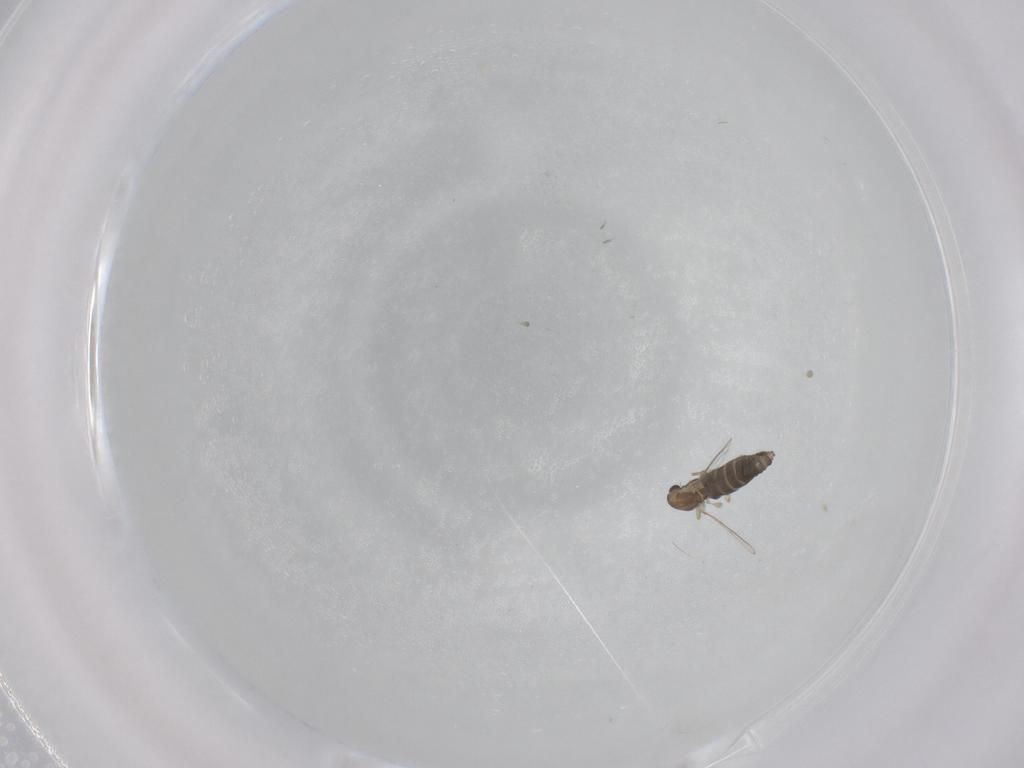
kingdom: Animalia
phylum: Arthropoda
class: Insecta
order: Diptera
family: Chironomidae
